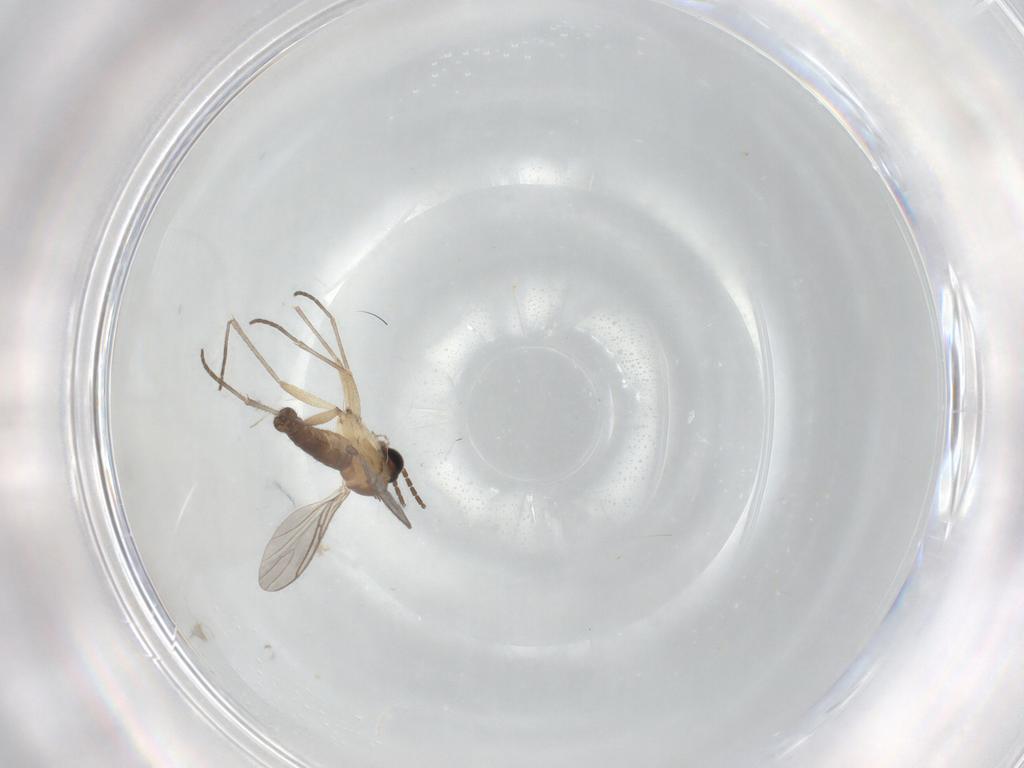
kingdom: Animalia
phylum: Arthropoda
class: Insecta
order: Diptera
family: Sciaridae
